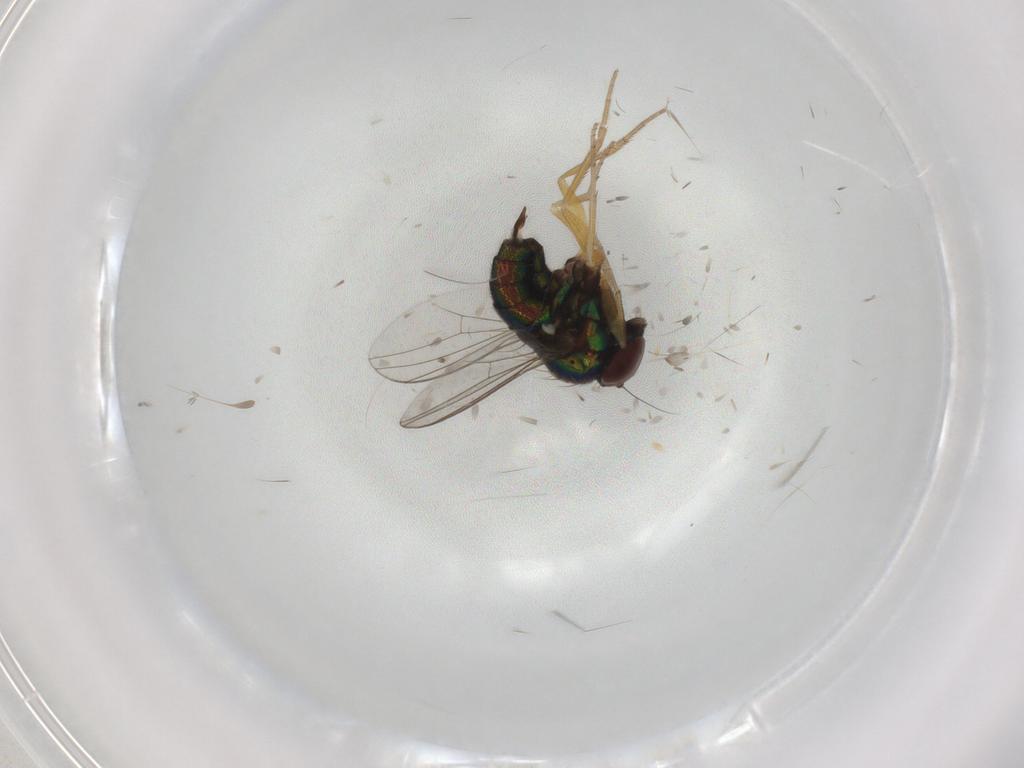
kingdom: Animalia
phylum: Arthropoda
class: Insecta
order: Diptera
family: Dolichopodidae
